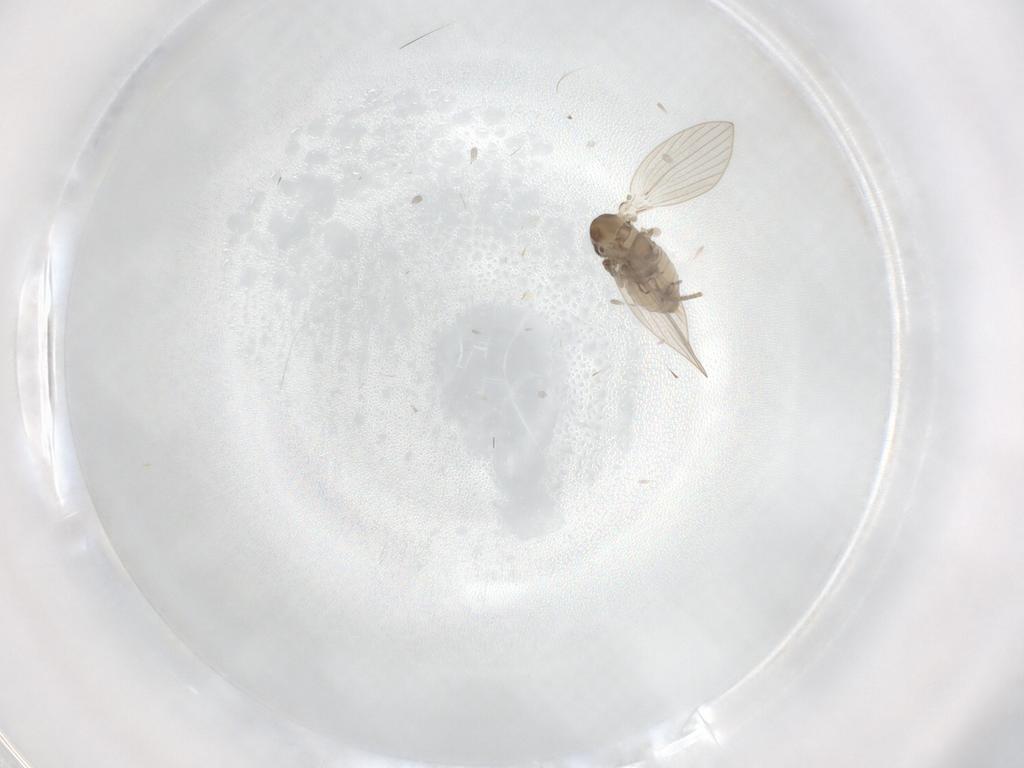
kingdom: Animalia
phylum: Arthropoda
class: Insecta
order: Diptera
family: Psychodidae
